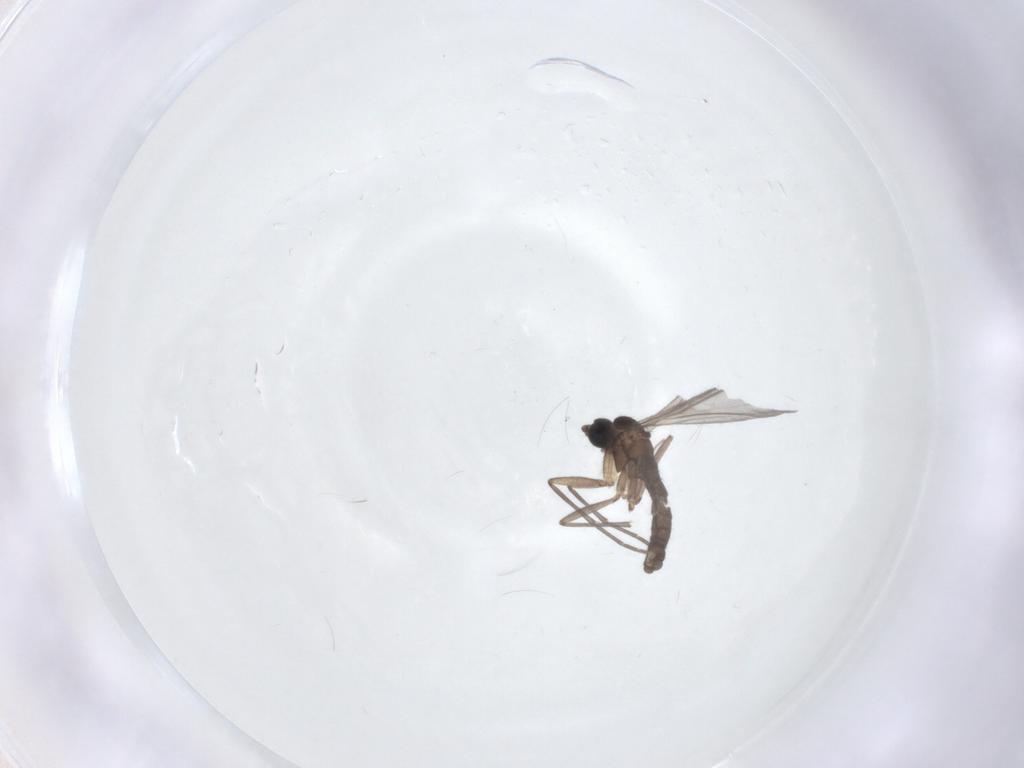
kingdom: Animalia
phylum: Arthropoda
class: Insecta
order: Diptera
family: Sciaridae
